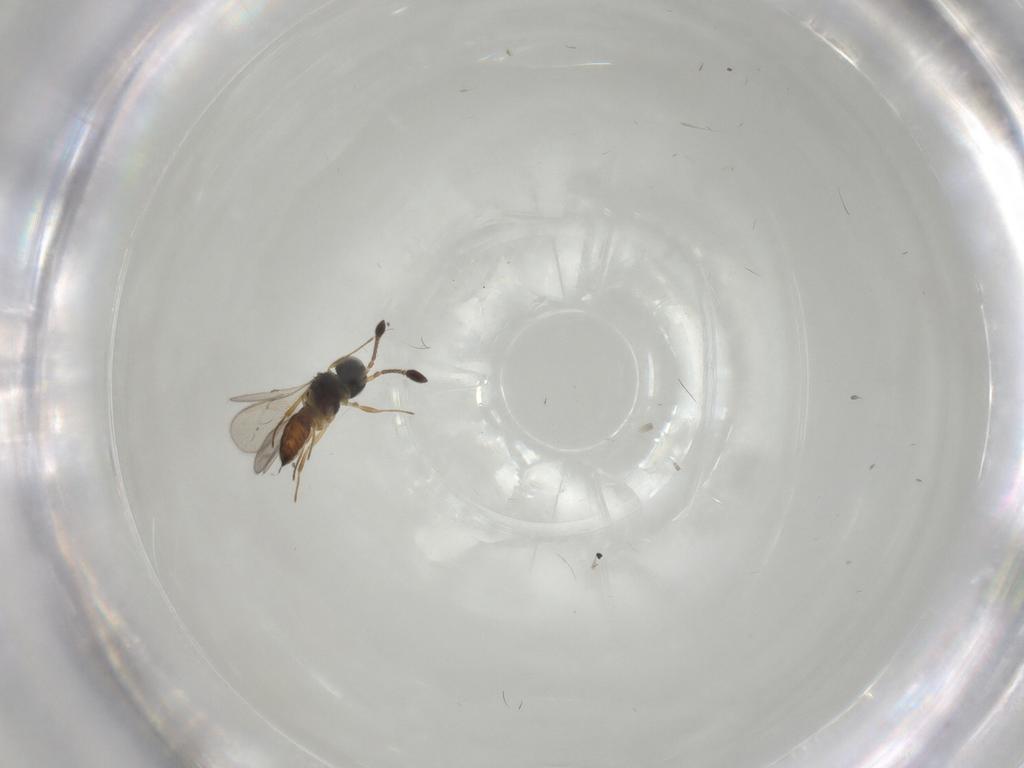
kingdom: Animalia
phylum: Arthropoda
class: Insecta
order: Hymenoptera
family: Scelionidae
